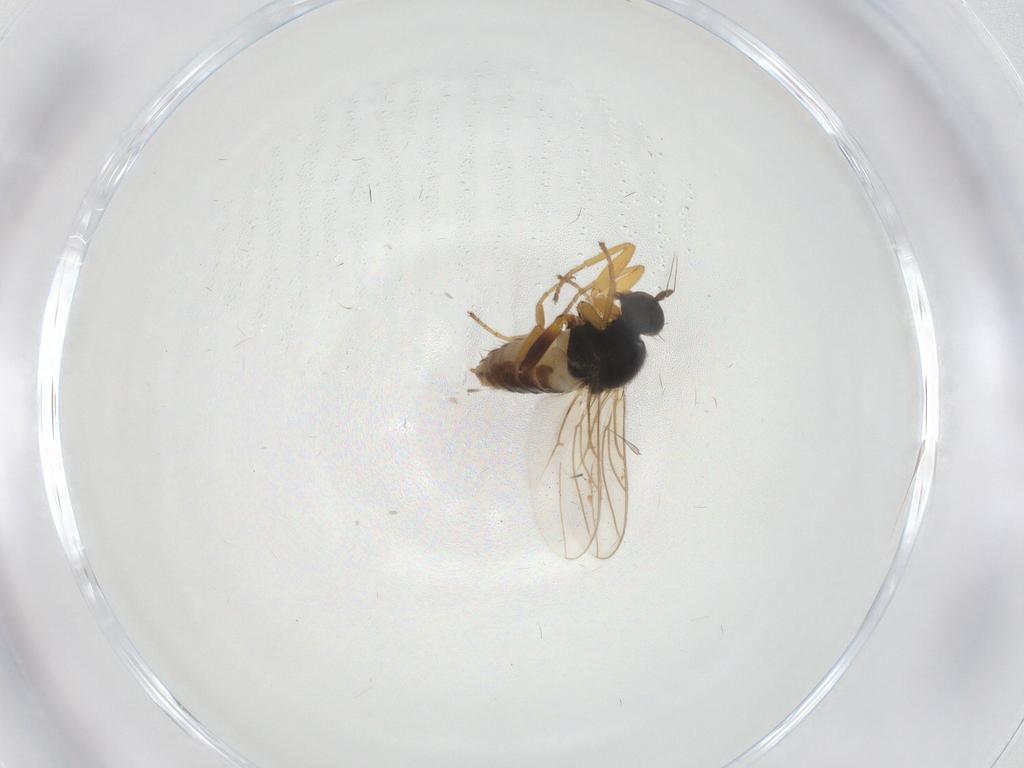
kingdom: Animalia
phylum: Arthropoda
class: Insecta
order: Diptera
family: Hybotidae
